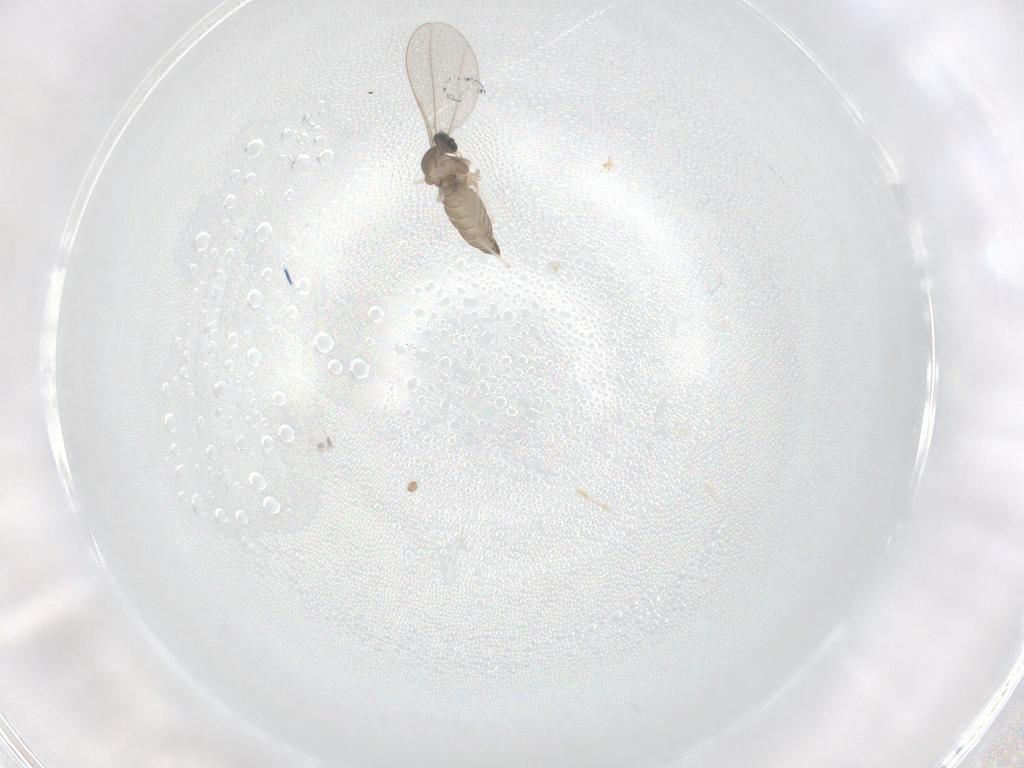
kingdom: Animalia
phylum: Arthropoda
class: Insecta
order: Diptera
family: Sciaridae
